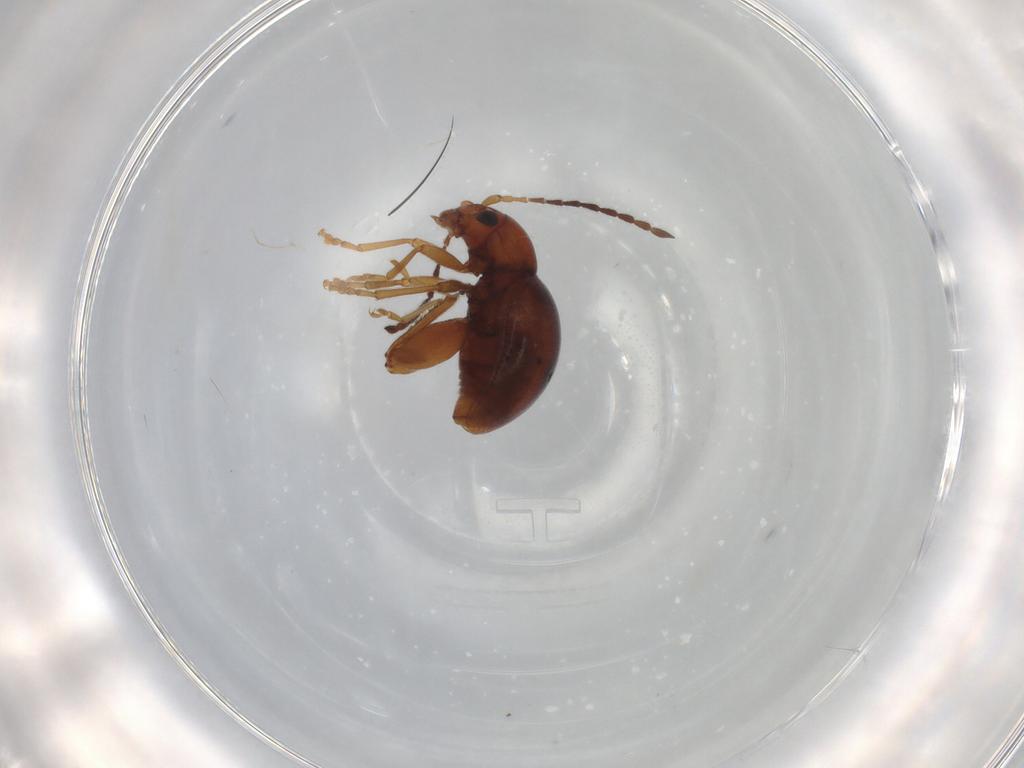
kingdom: Animalia
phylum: Arthropoda
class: Insecta
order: Coleoptera
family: Chrysomelidae
